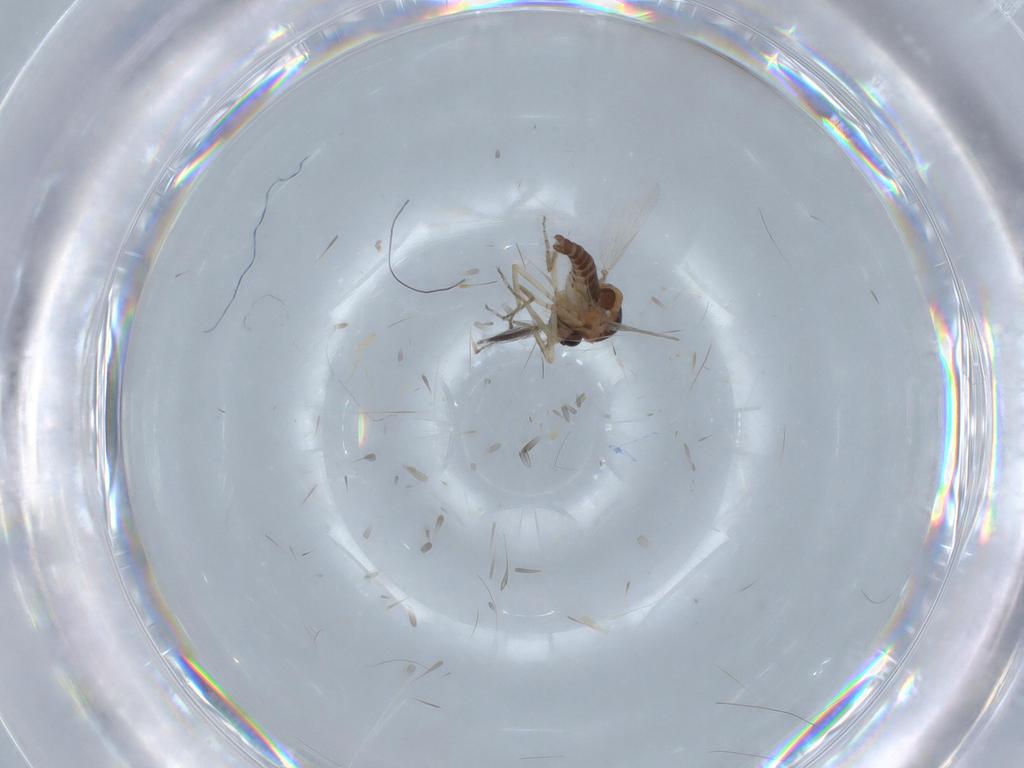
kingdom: Animalia
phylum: Arthropoda
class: Insecta
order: Diptera
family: Ceratopogonidae
